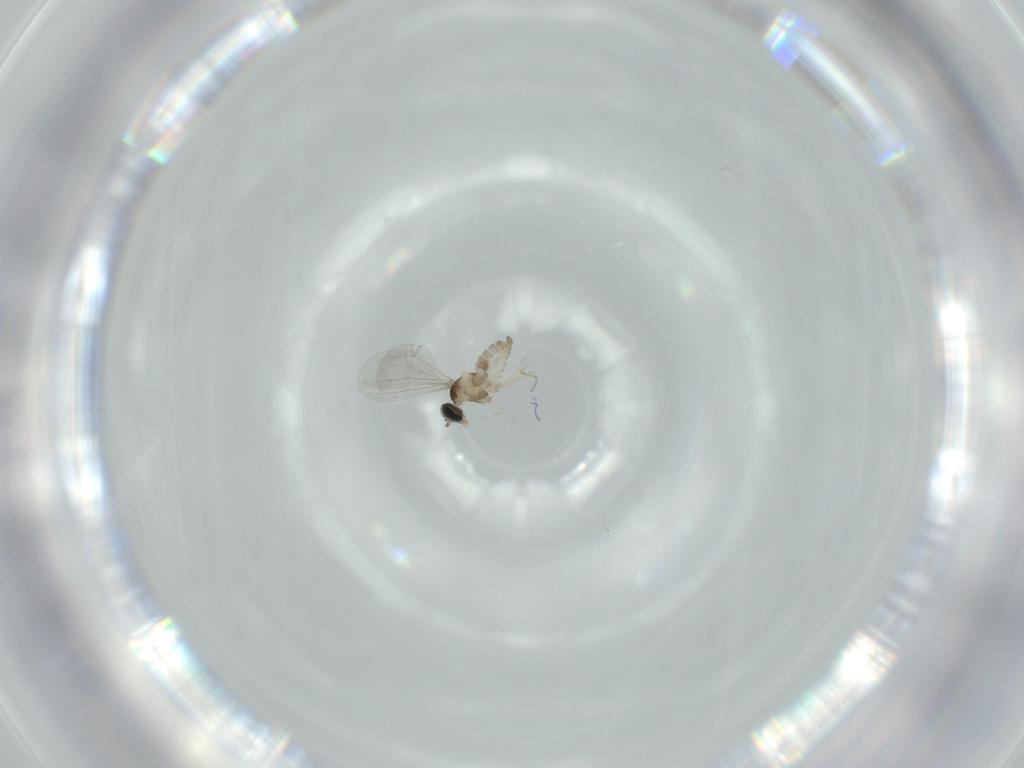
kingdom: Animalia
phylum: Arthropoda
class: Insecta
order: Diptera
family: Cecidomyiidae
